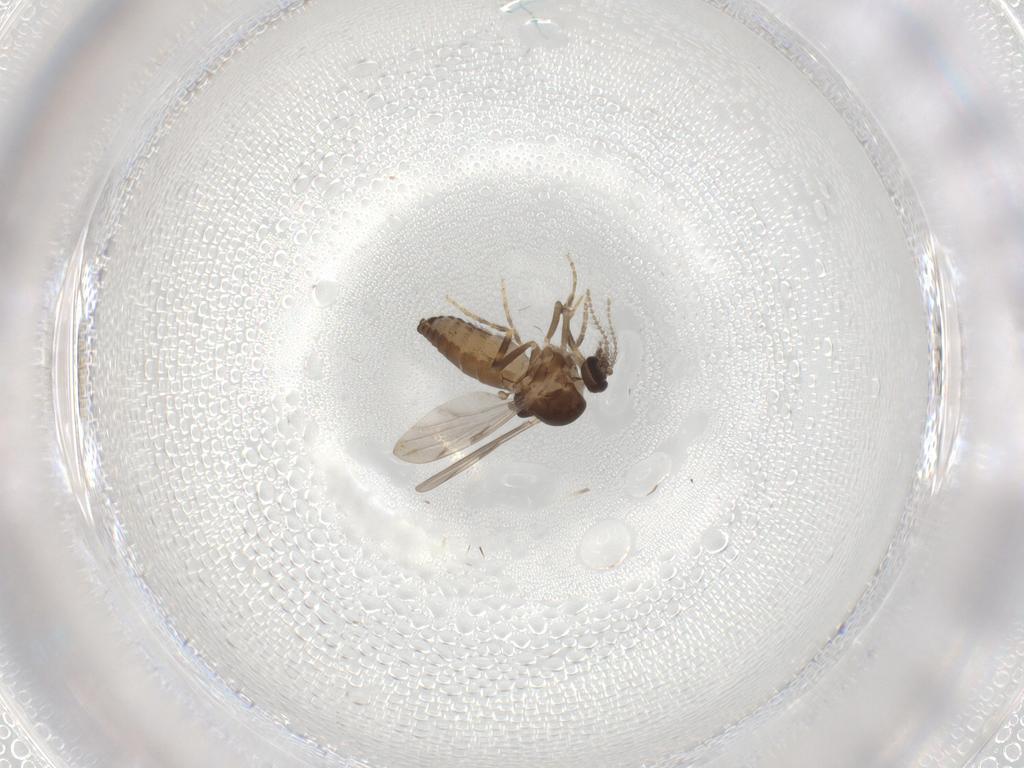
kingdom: Animalia
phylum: Arthropoda
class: Insecta
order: Diptera
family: Ceratopogonidae
